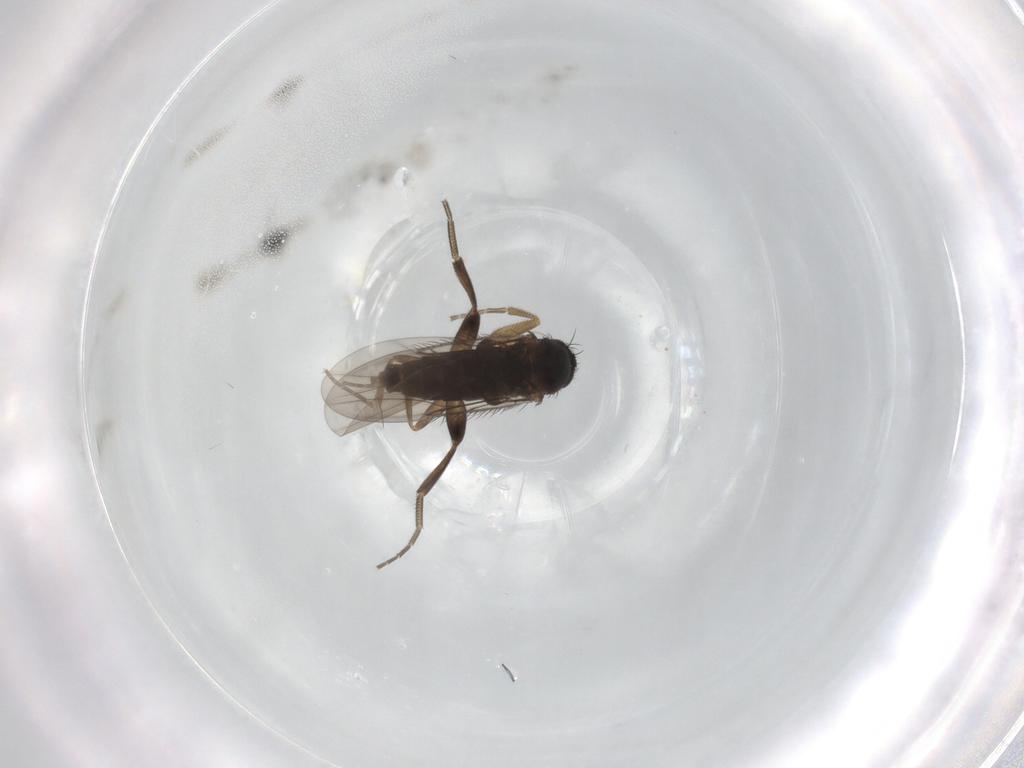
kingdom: Animalia
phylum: Arthropoda
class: Insecta
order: Diptera
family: Phoridae
